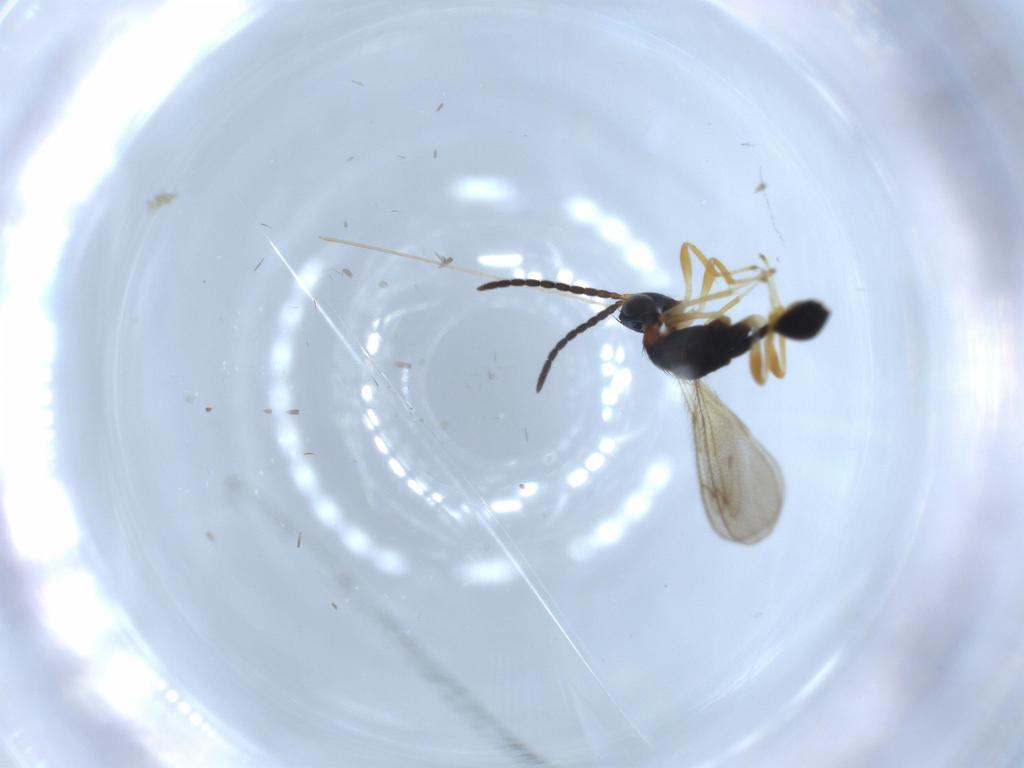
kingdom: Animalia
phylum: Arthropoda
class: Insecta
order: Hymenoptera
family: Diparidae
